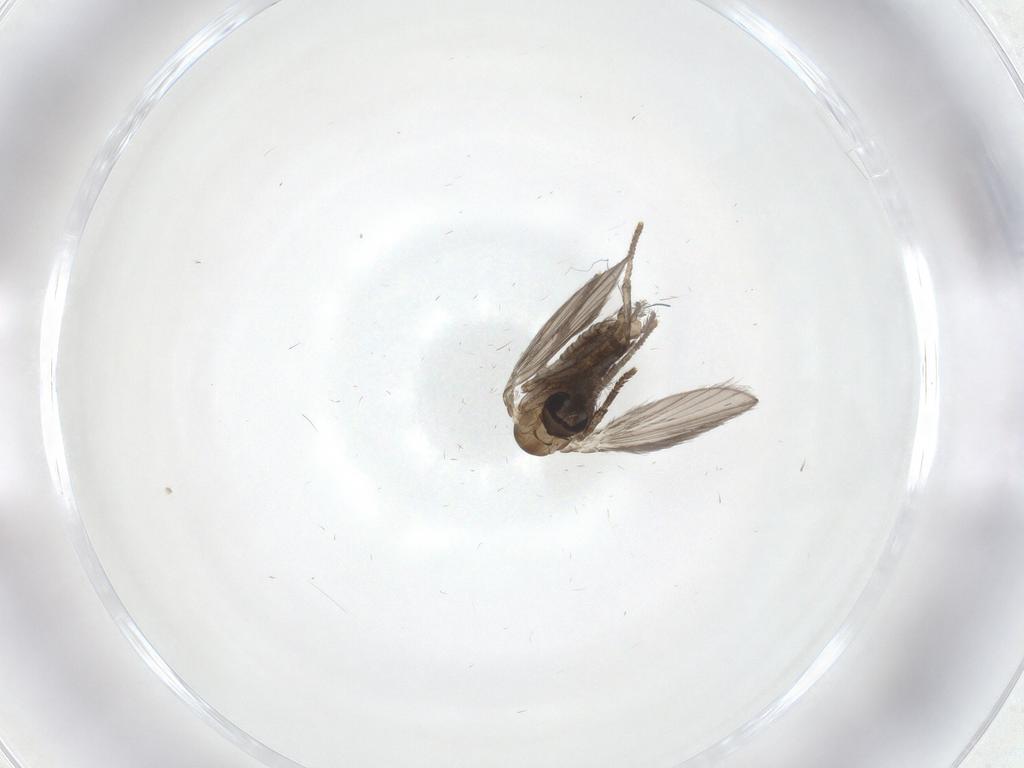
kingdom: Animalia
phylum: Arthropoda
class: Insecta
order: Diptera
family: Psychodidae
